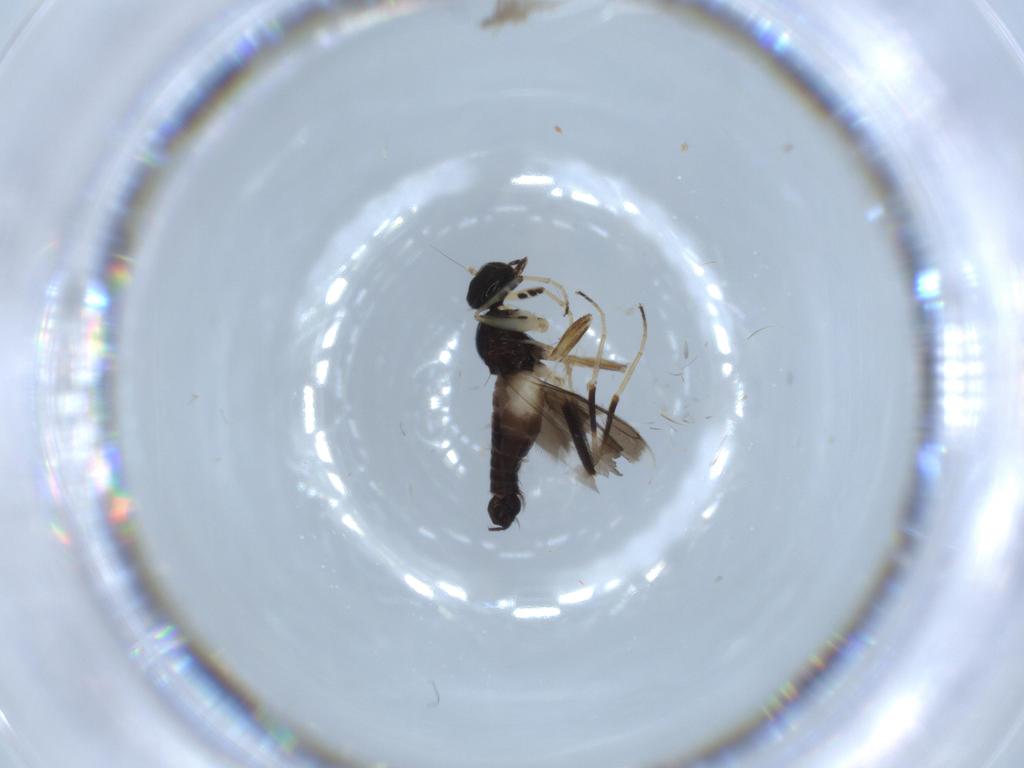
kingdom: Animalia
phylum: Arthropoda
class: Insecta
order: Diptera
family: Hybotidae
